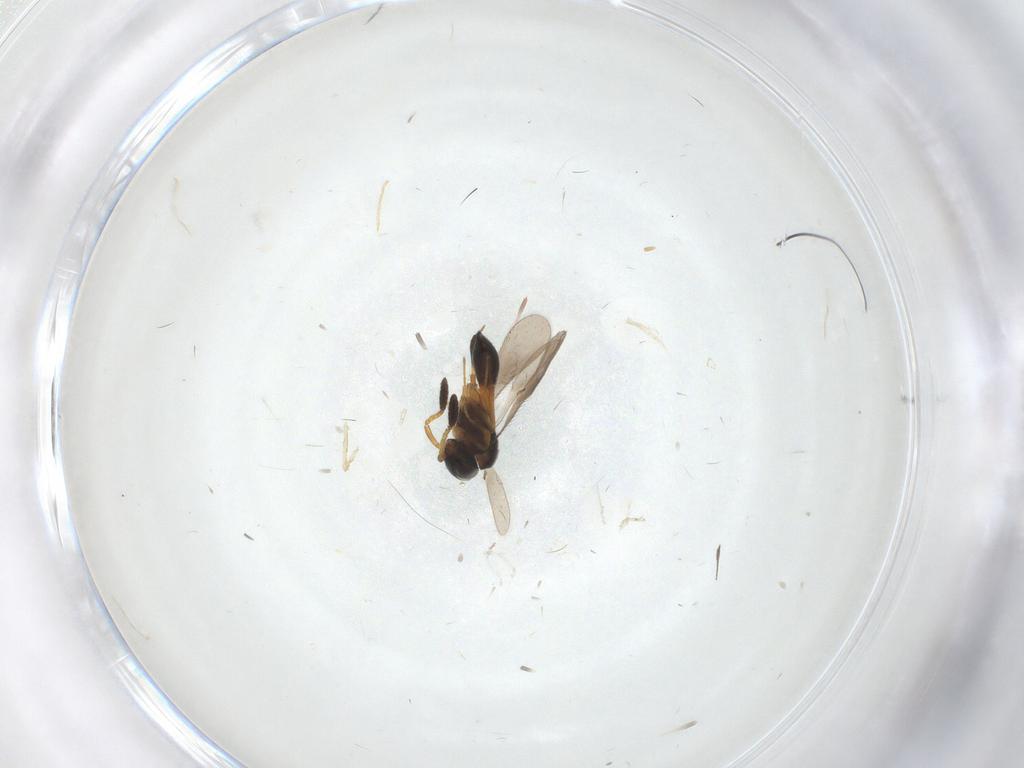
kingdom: Animalia
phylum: Arthropoda
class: Insecta
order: Hymenoptera
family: Scelionidae
